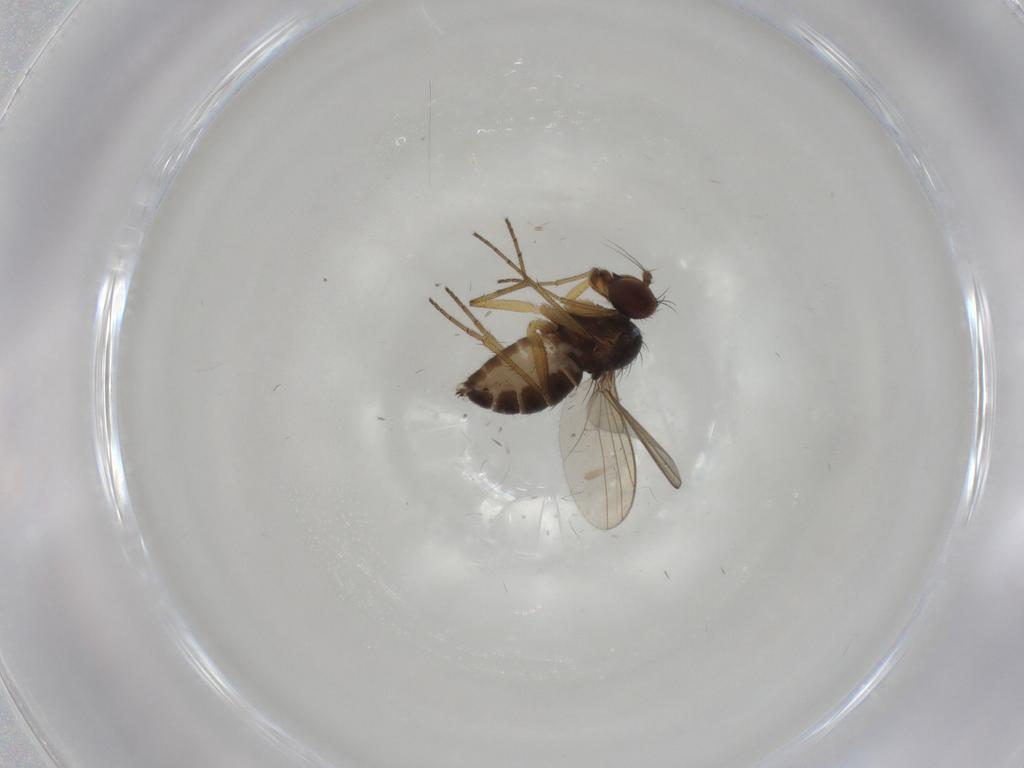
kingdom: Animalia
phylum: Arthropoda
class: Insecta
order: Diptera
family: Dolichopodidae
